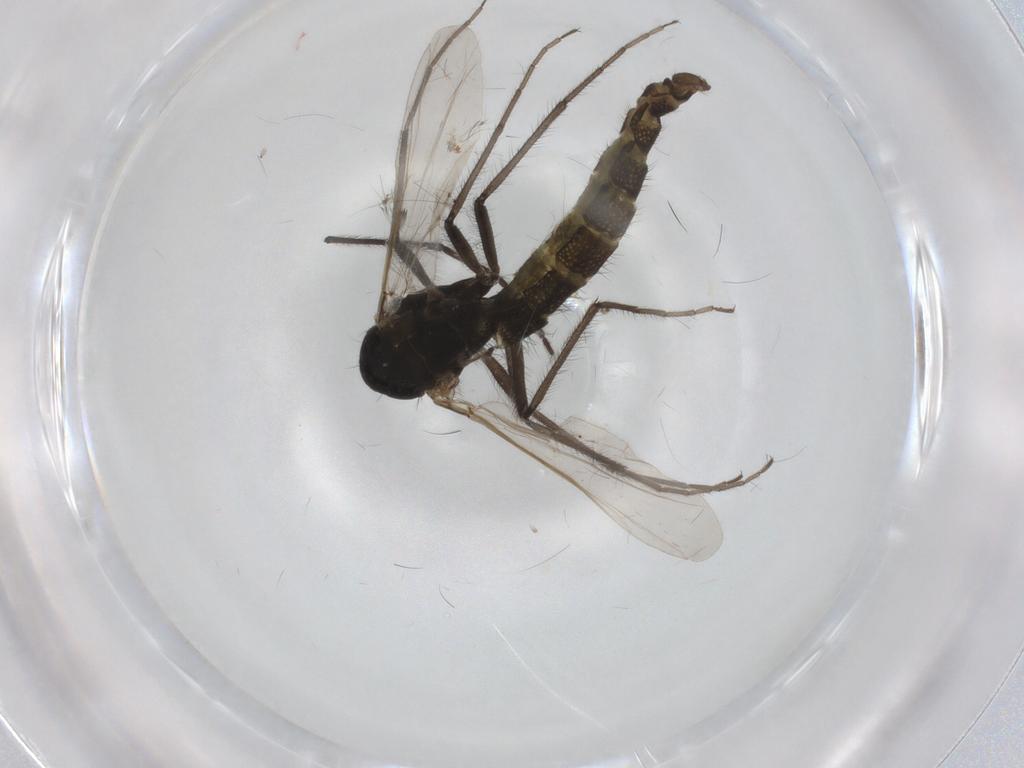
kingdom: Animalia
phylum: Arthropoda
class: Insecta
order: Diptera
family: Chironomidae
